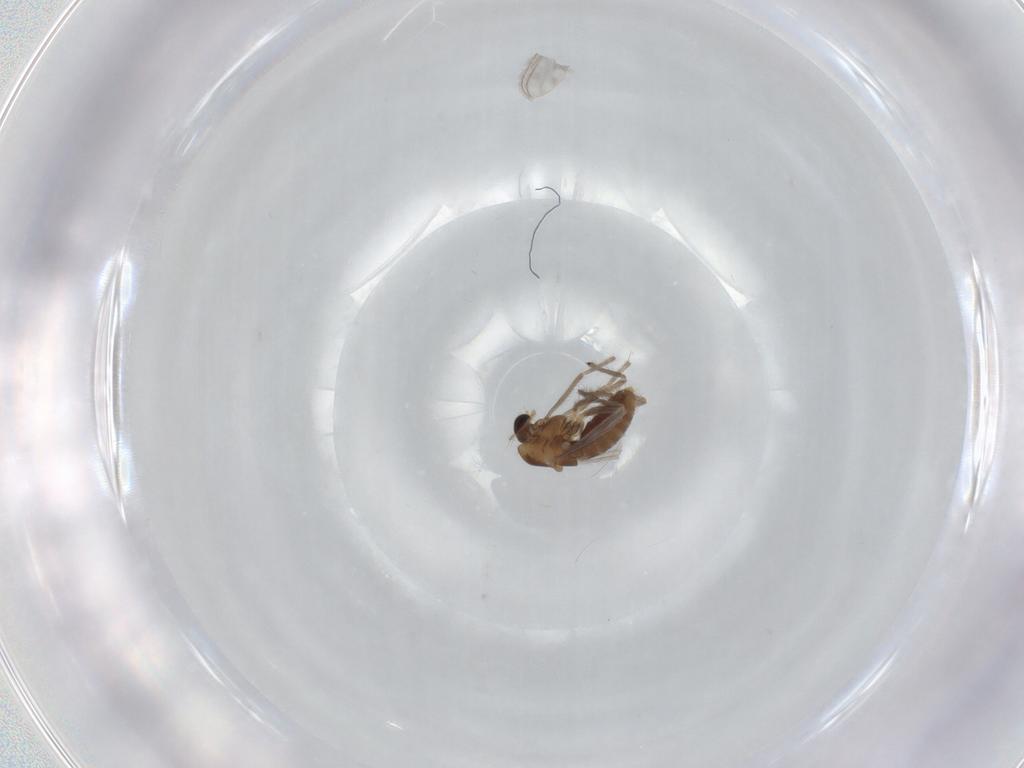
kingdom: Animalia
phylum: Arthropoda
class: Insecta
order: Diptera
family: Chironomidae
